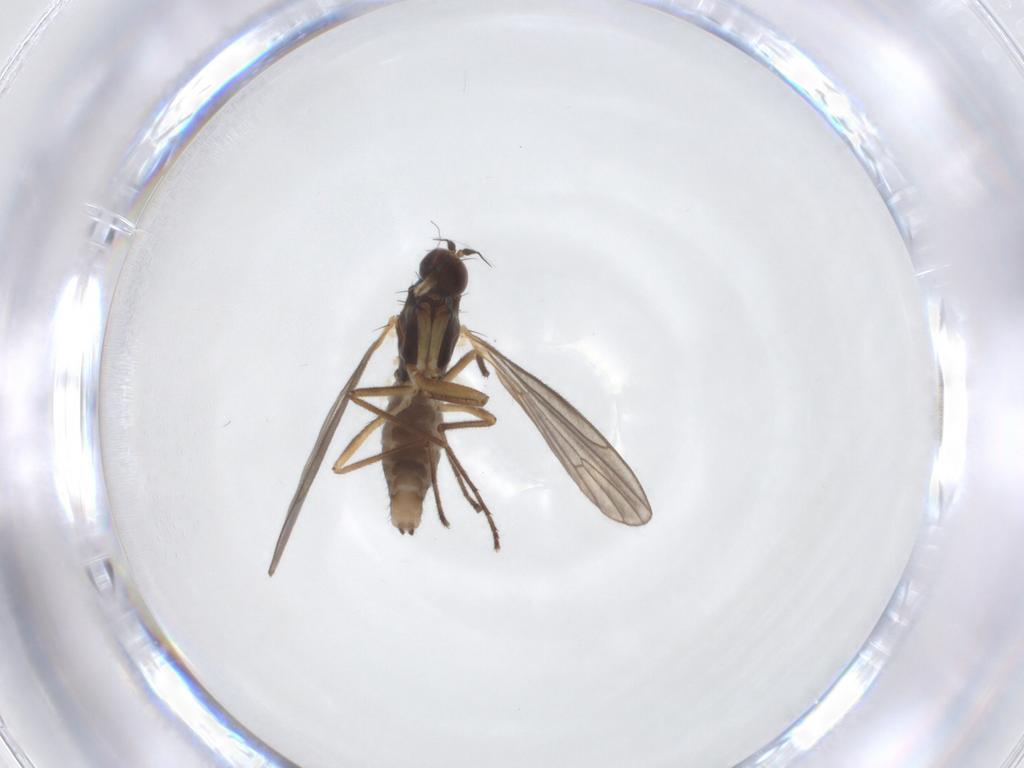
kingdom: Animalia
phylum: Arthropoda
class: Insecta
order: Diptera
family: Empididae
